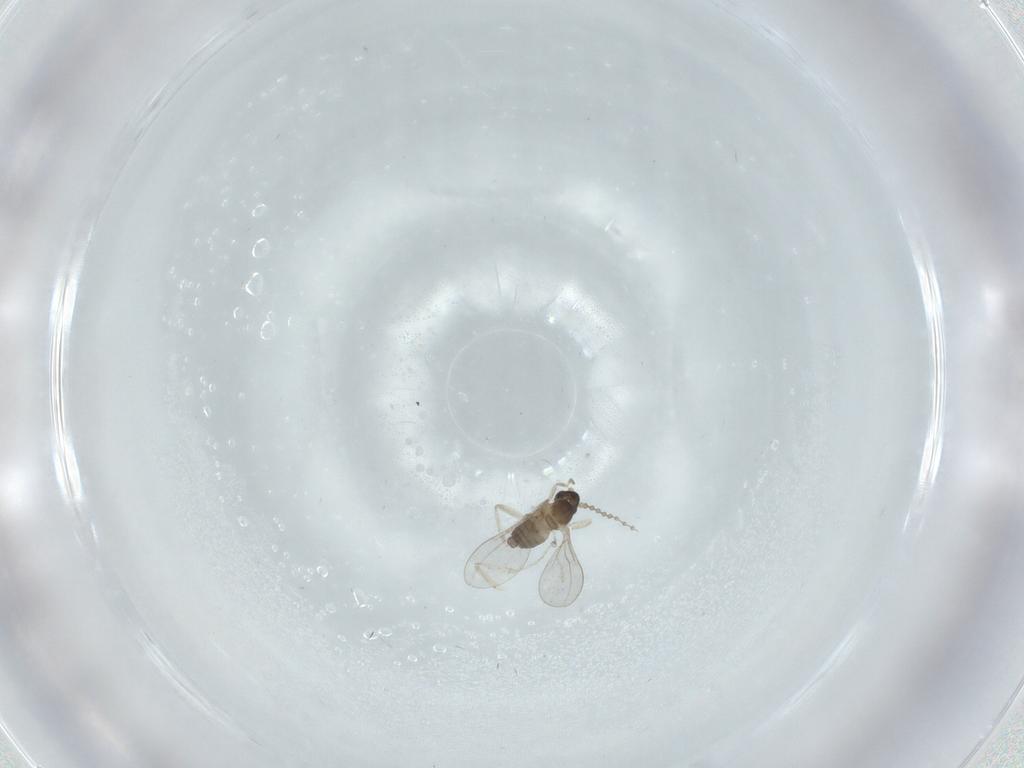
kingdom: Animalia
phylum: Arthropoda
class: Insecta
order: Diptera
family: Cecidomyiidae
